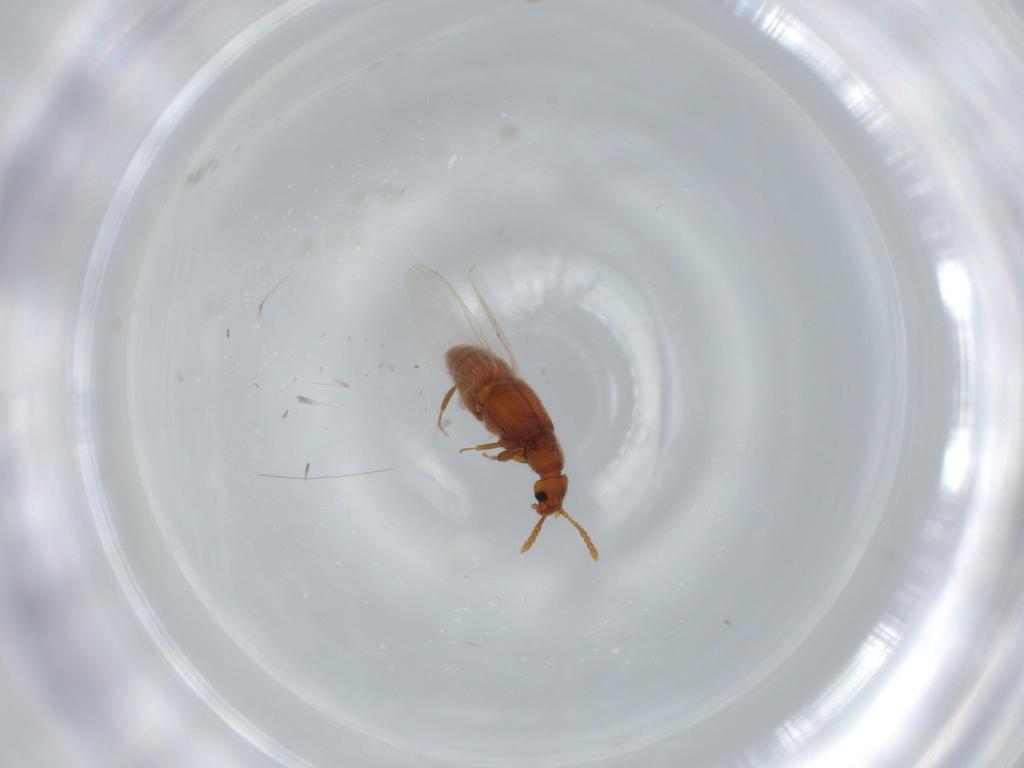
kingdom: Animalia
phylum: Arthropoda
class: Insecta
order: Coleoptera
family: Staphylinidae
